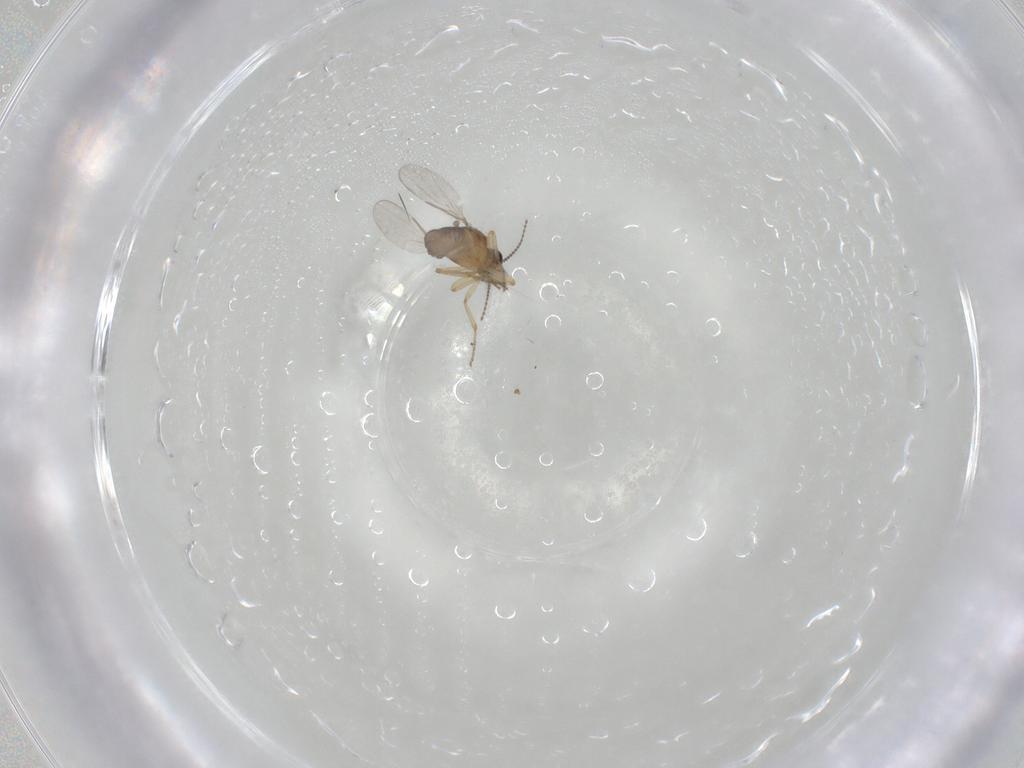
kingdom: Animalia
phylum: Arthropoda
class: Insecta
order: Diptera
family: Ceratopogonidae
